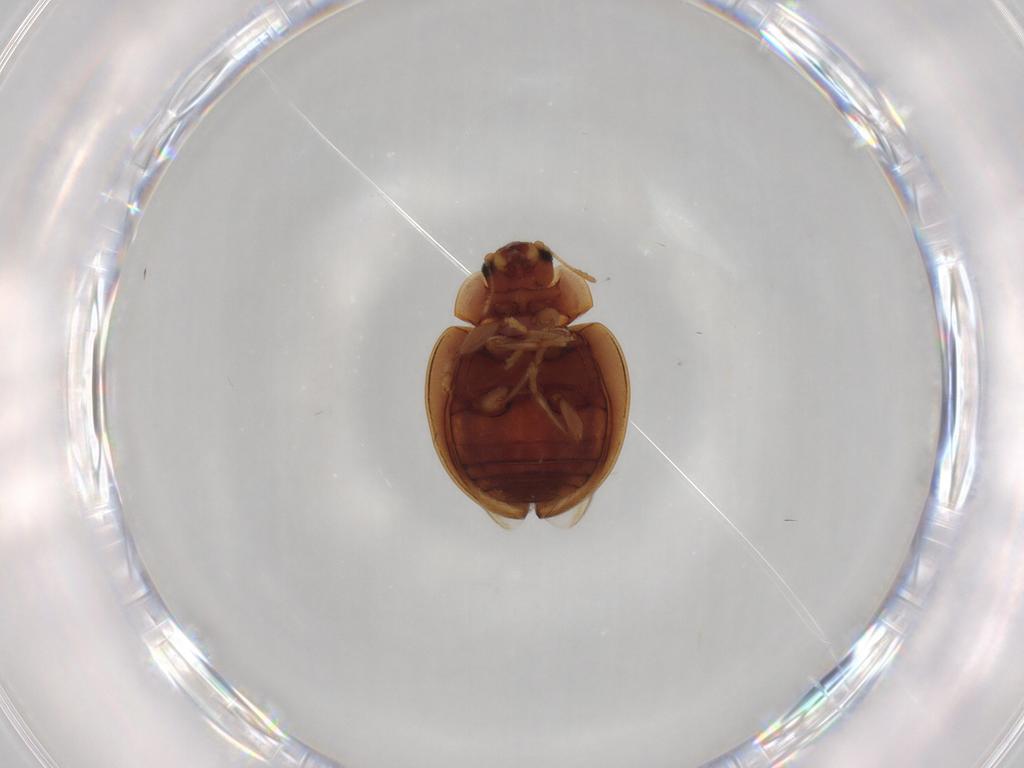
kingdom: Animalia
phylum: Arthropoda
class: Insecta
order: Coleoptera
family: Coccinellidae
